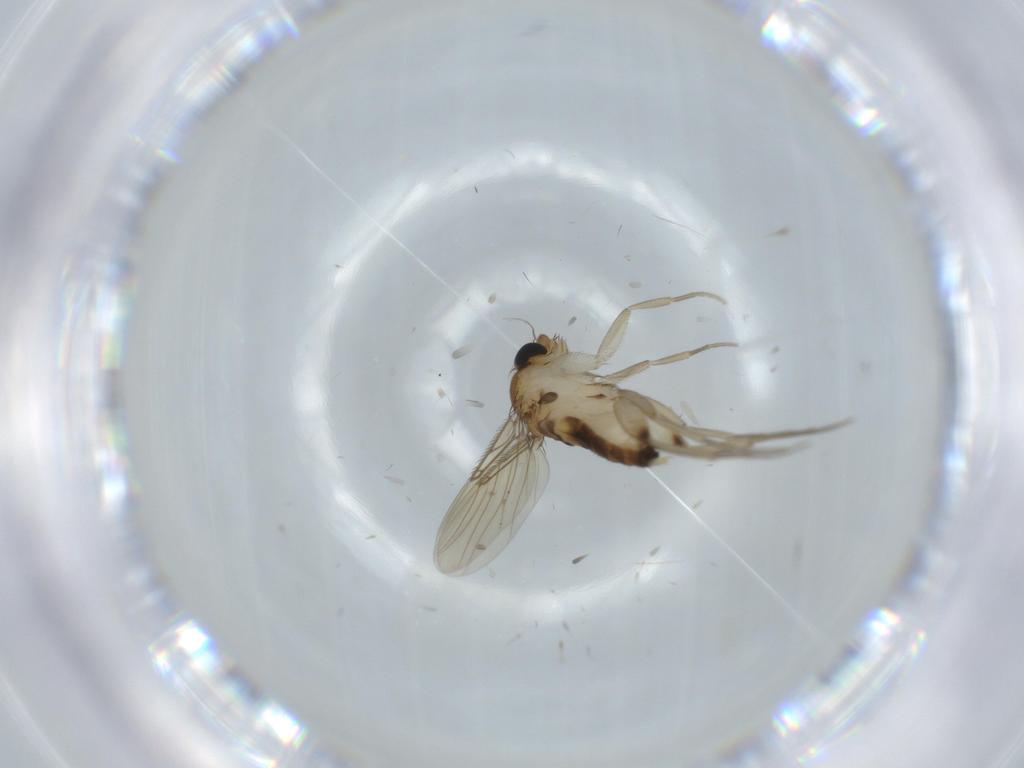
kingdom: Animalia
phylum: Arthropoda
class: Insecta
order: Diptera
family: Phoridae
